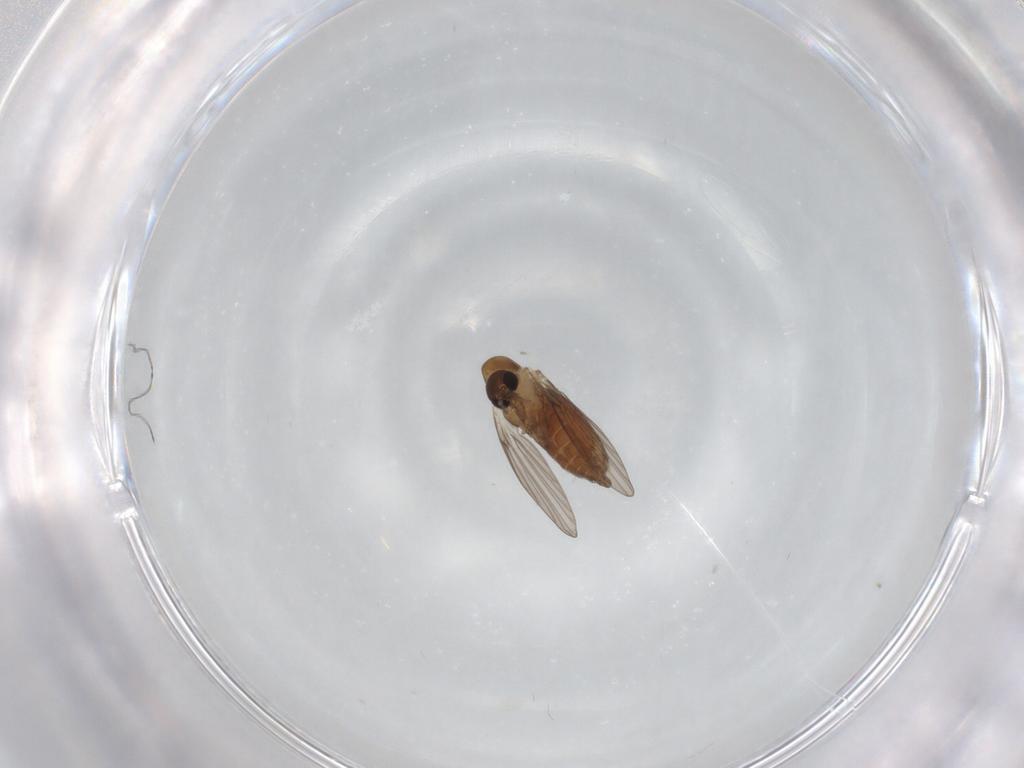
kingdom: Animalia
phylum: Arthropoda
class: Insecta
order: Diptera
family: Psychodidae
